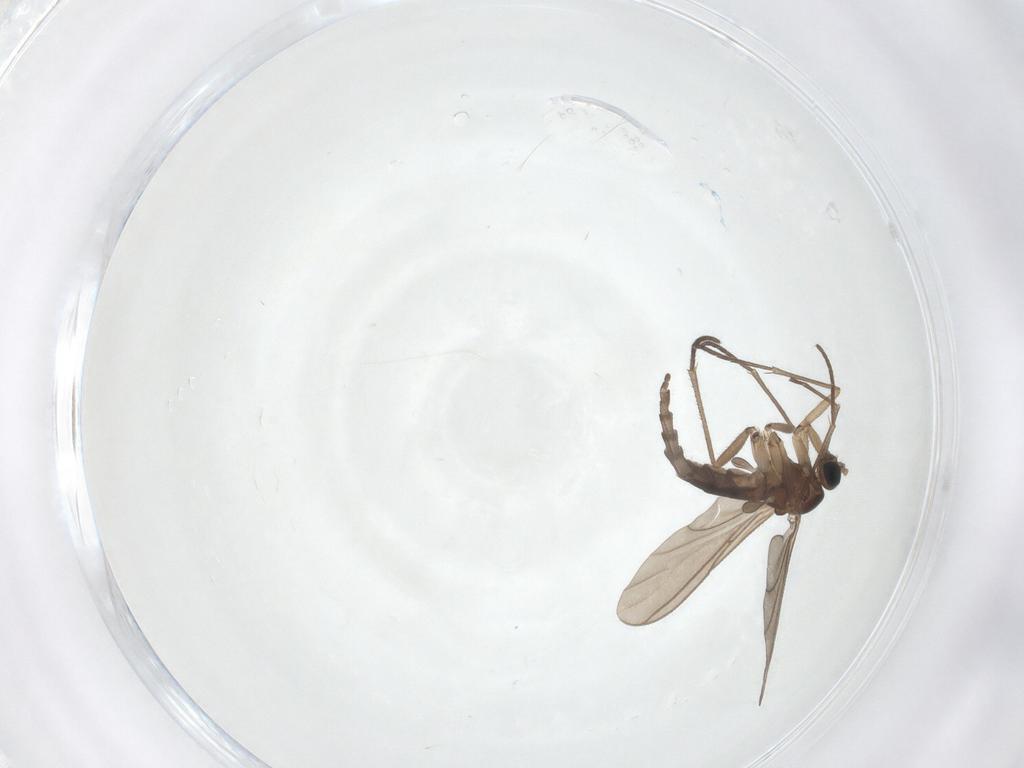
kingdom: Animalia
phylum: Arthropoda
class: Insecta
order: Diptera
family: Sciaridae
